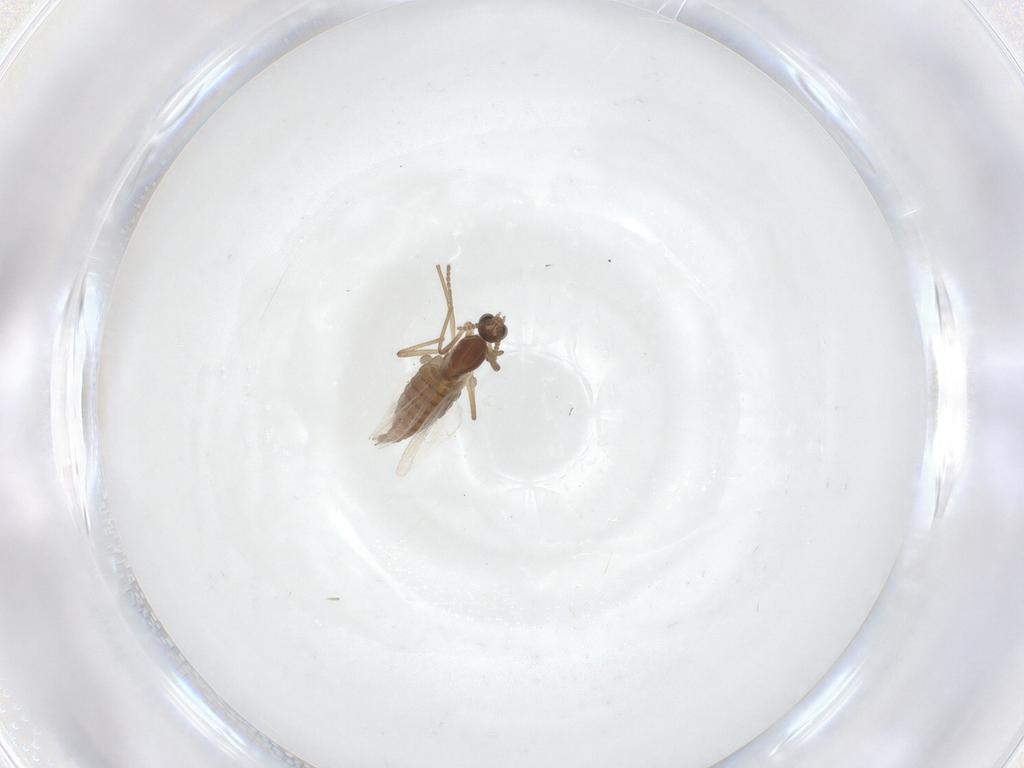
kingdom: Animalia
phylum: Arthropoda
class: Insecta
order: Diptera
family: Cecidomyiidae
